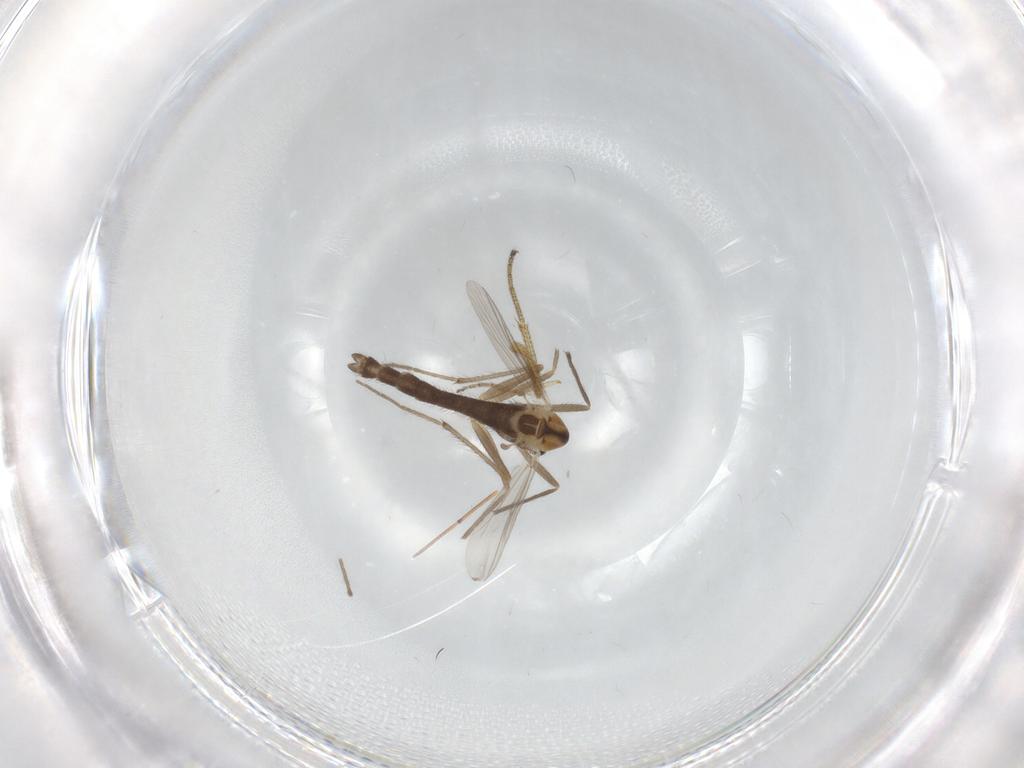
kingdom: Animalia
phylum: Arthropoda
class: Insecta
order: Diptera
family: Chironomidae
